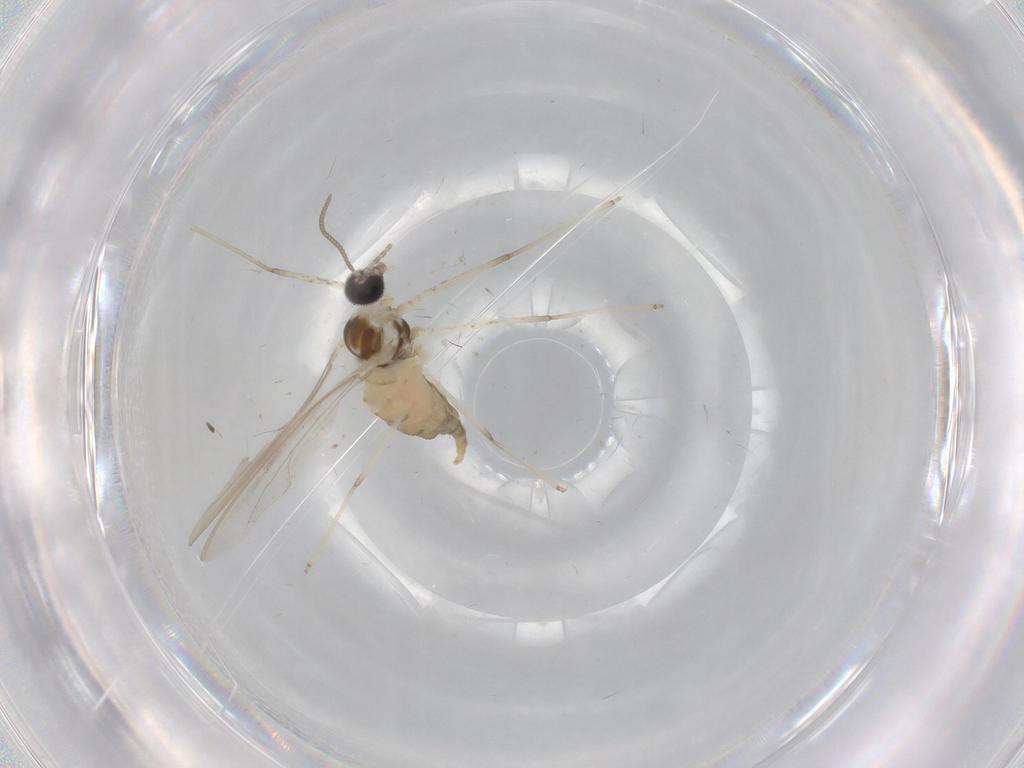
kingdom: Animalia
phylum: Arthropoda
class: Insecta
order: Diptera
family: Cecidomyiidae
